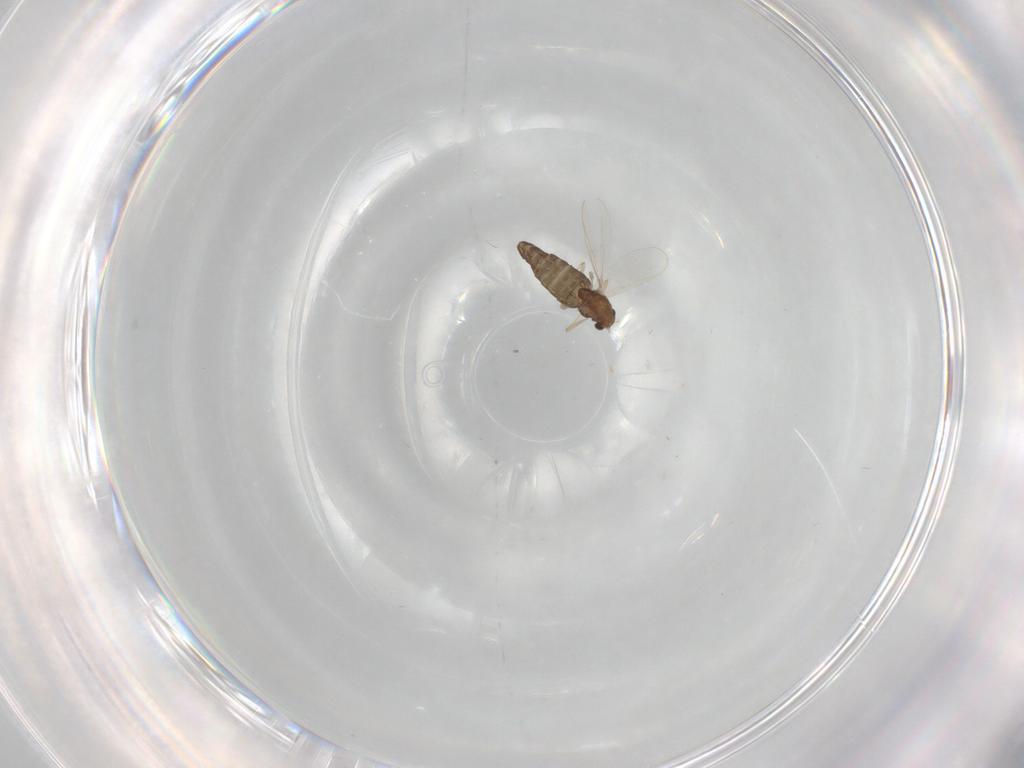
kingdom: Animalia
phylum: Arthropoda
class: Insecta
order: Diptera
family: Chironomidae
